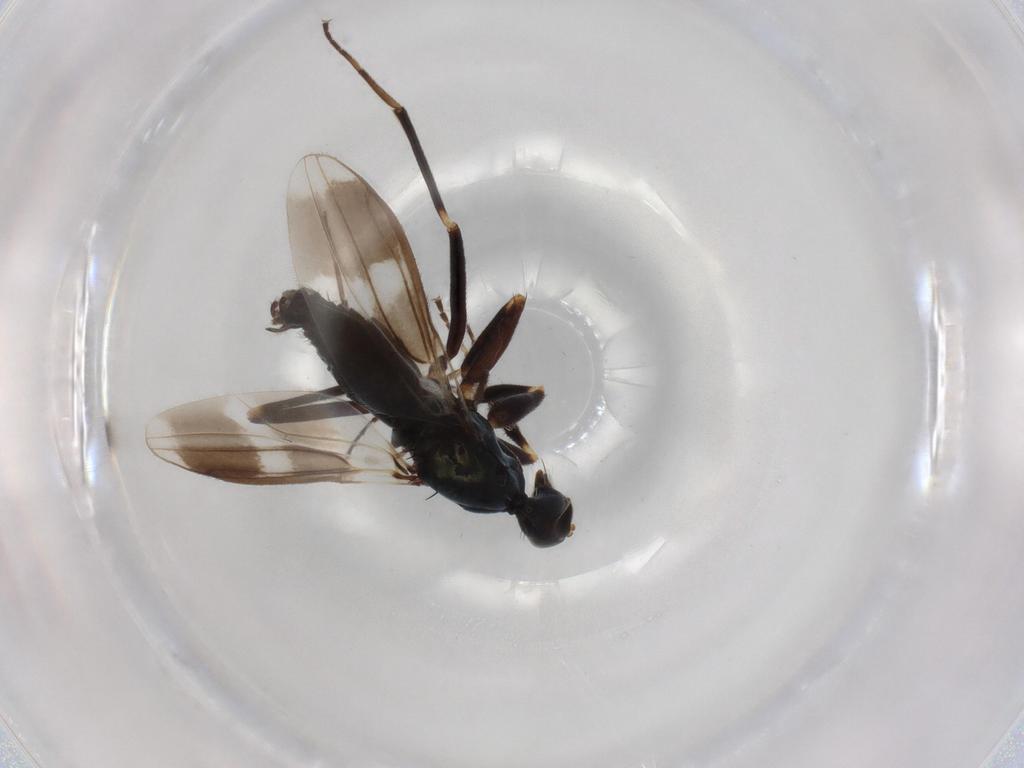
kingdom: Animalia
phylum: Arthropoda
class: Insecta
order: Diptera
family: Hybotidae
